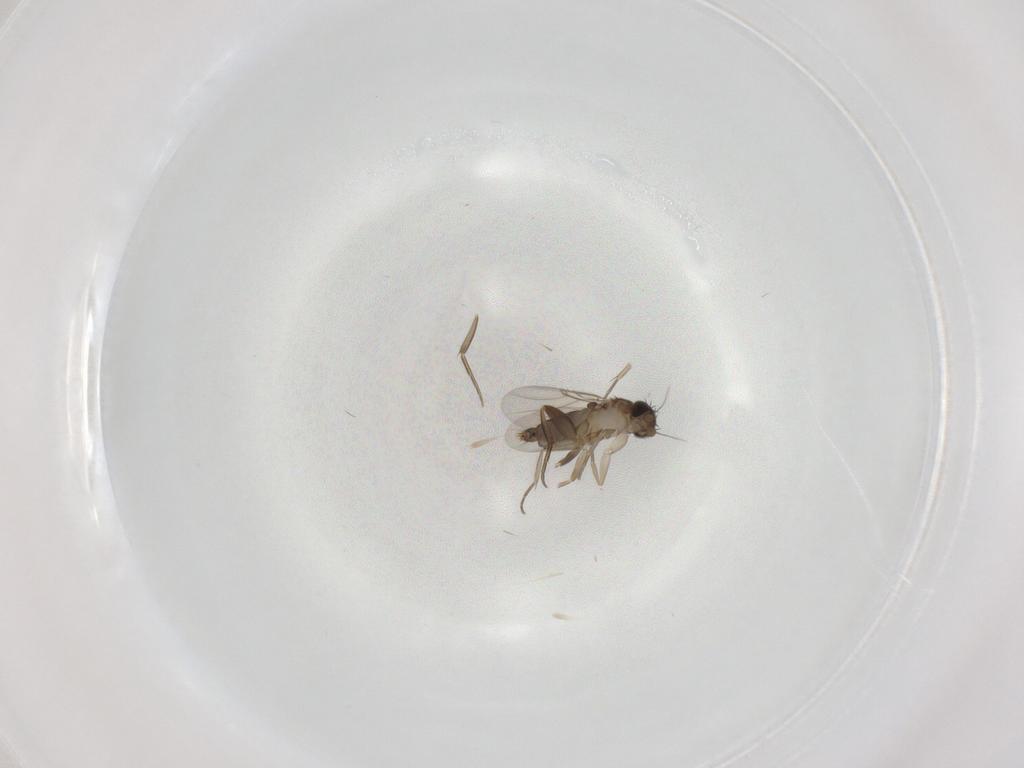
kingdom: Animalia
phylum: Arthropoda
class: Insecta
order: Diptera
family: Phoridae
